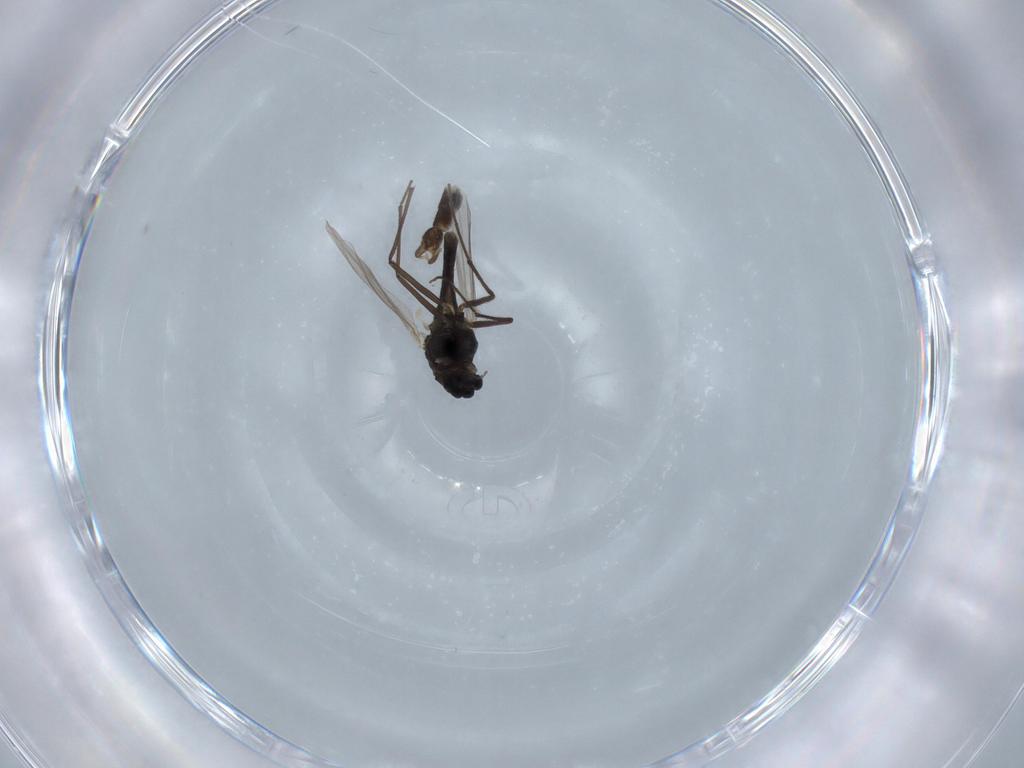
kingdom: Animalia
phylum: Arthropoda
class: Insecta
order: Diptera
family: Chironomidae
